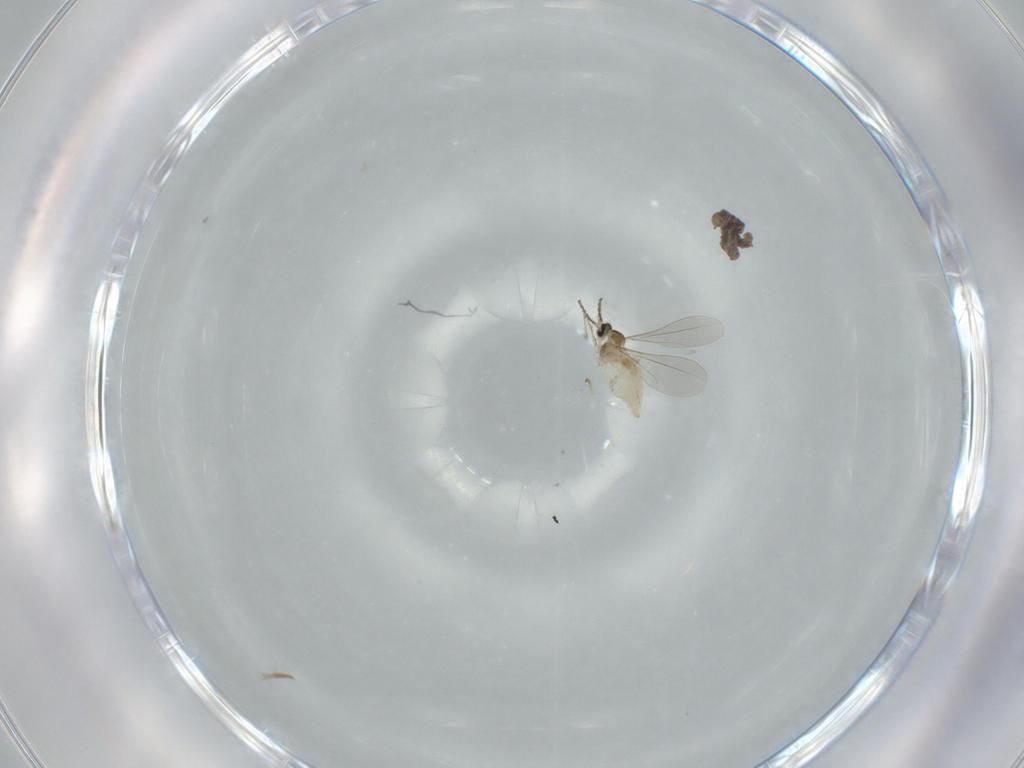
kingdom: Animalia
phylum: Arthropoda
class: Insecta
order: Diptera
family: Cecidomyiidae
